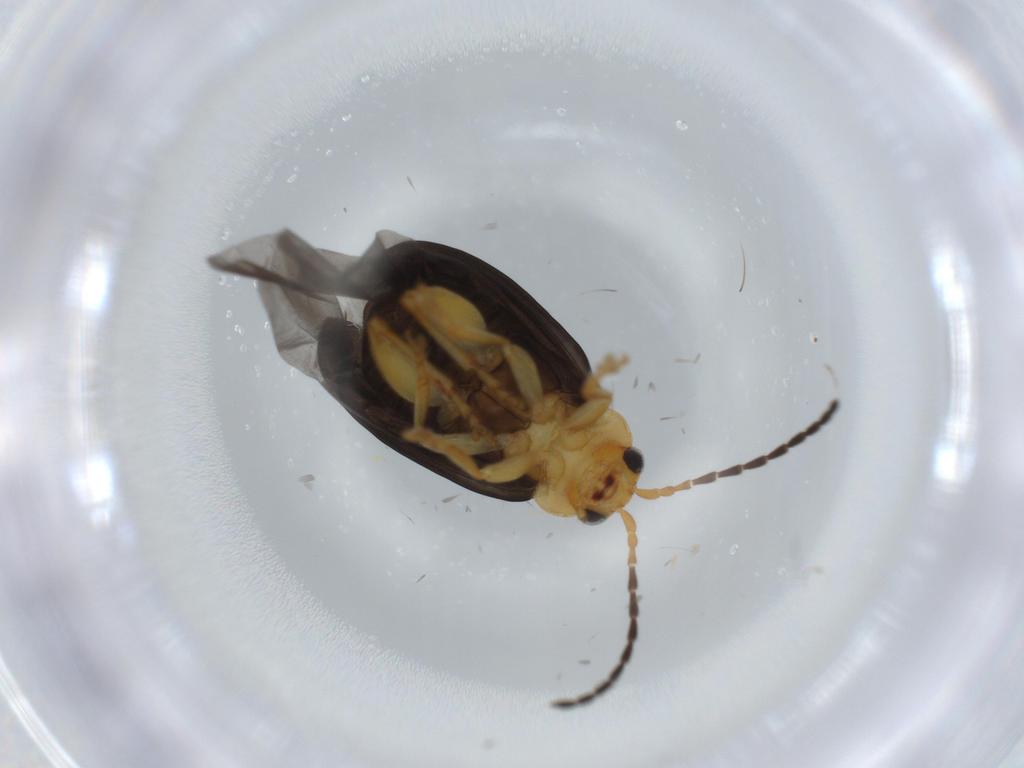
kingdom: Animalia
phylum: Arthropoda
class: Insecta
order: Coleoptera
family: Chrysomelidae
